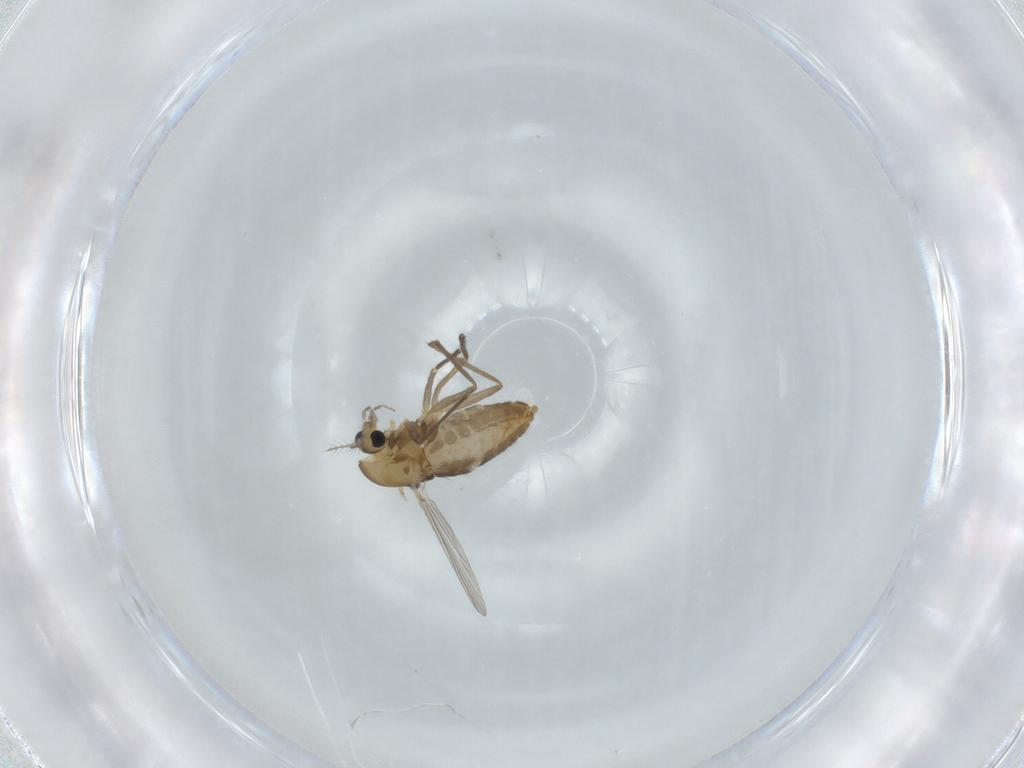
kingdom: Animalia
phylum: Arthropoda
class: Insecta
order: Diptera
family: Chironomidae
